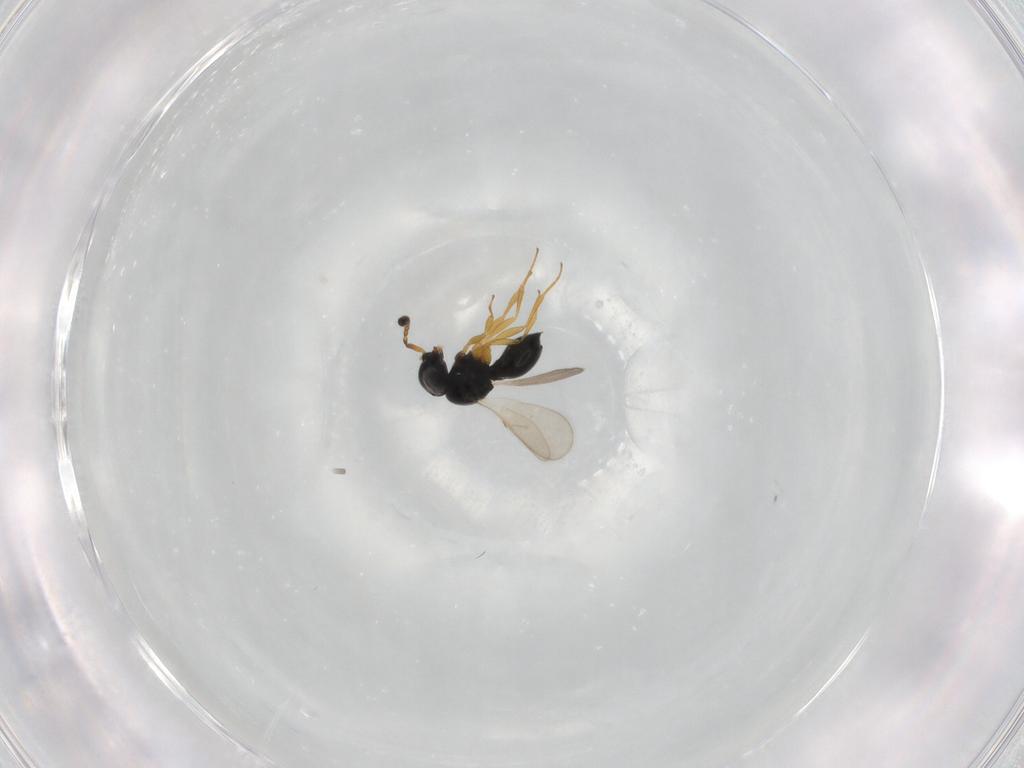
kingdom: Animalia
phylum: Arthropoda
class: Insecta
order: Hymenoptera
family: Scelionidae
